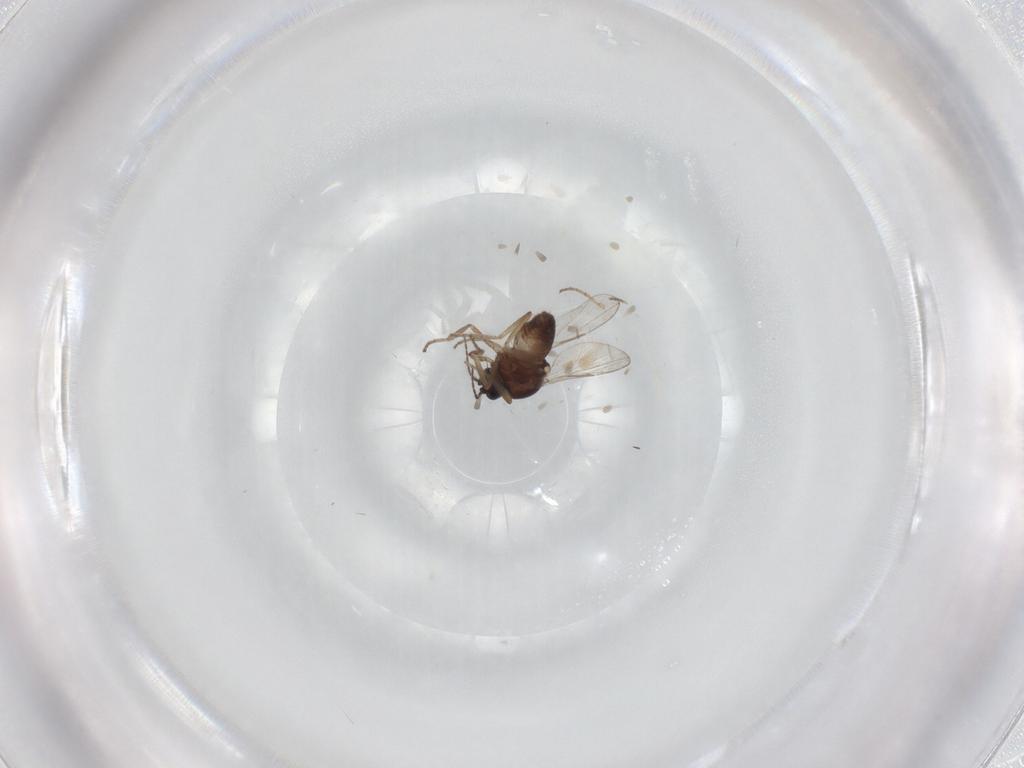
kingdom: Animalia
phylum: Arthropoda
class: Insecta
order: Diptera
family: Ceratopogonidae
